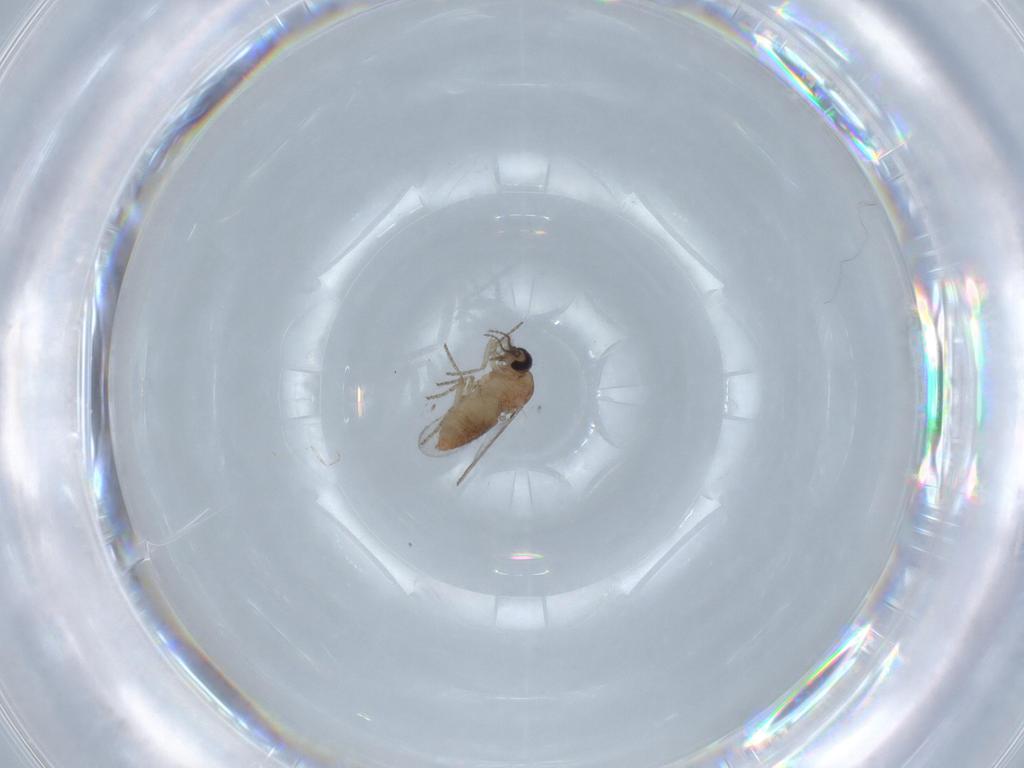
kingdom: Animalia
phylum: Arthropoda
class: Insecta
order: Diptera
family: Ceratopogonidae
